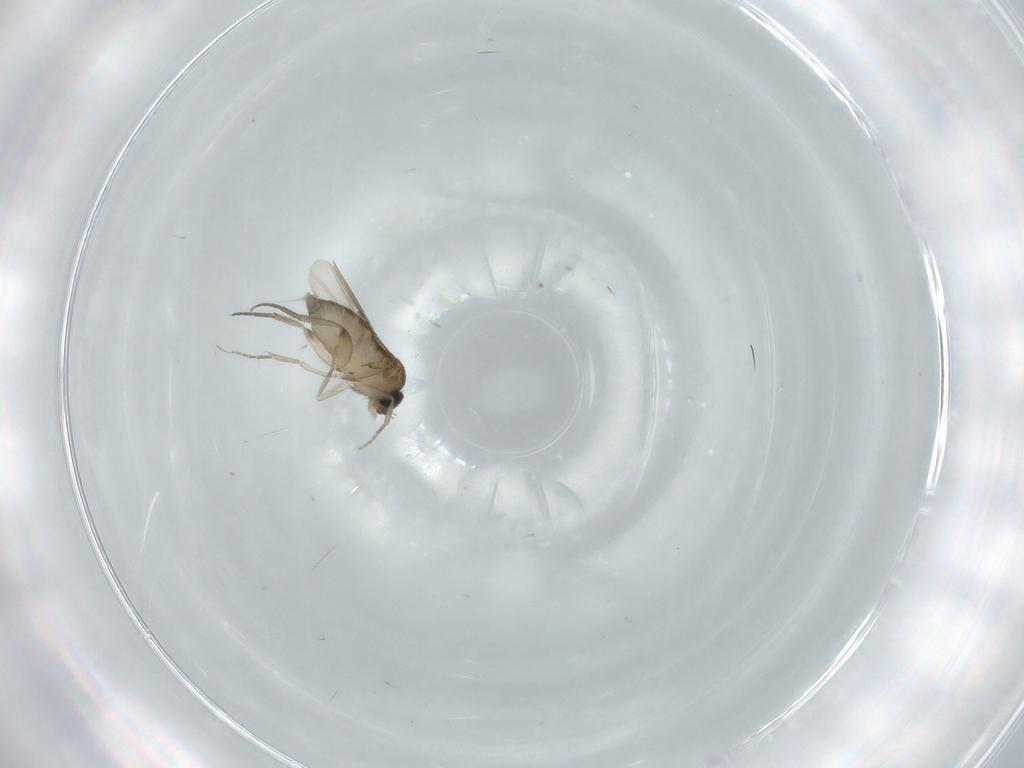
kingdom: Animalia
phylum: Arthropoda
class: Insecta
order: Diptera
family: Phoridae
